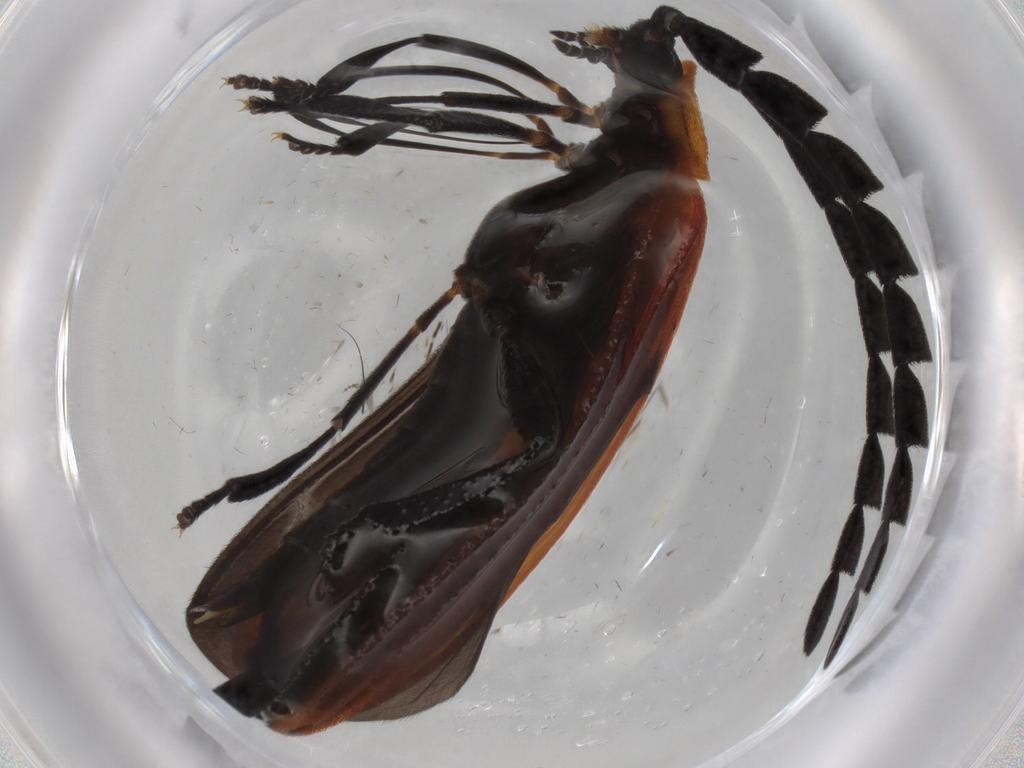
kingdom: Animalia
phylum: Arthropoda
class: Insecta
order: Coleoptera
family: Lycidae
